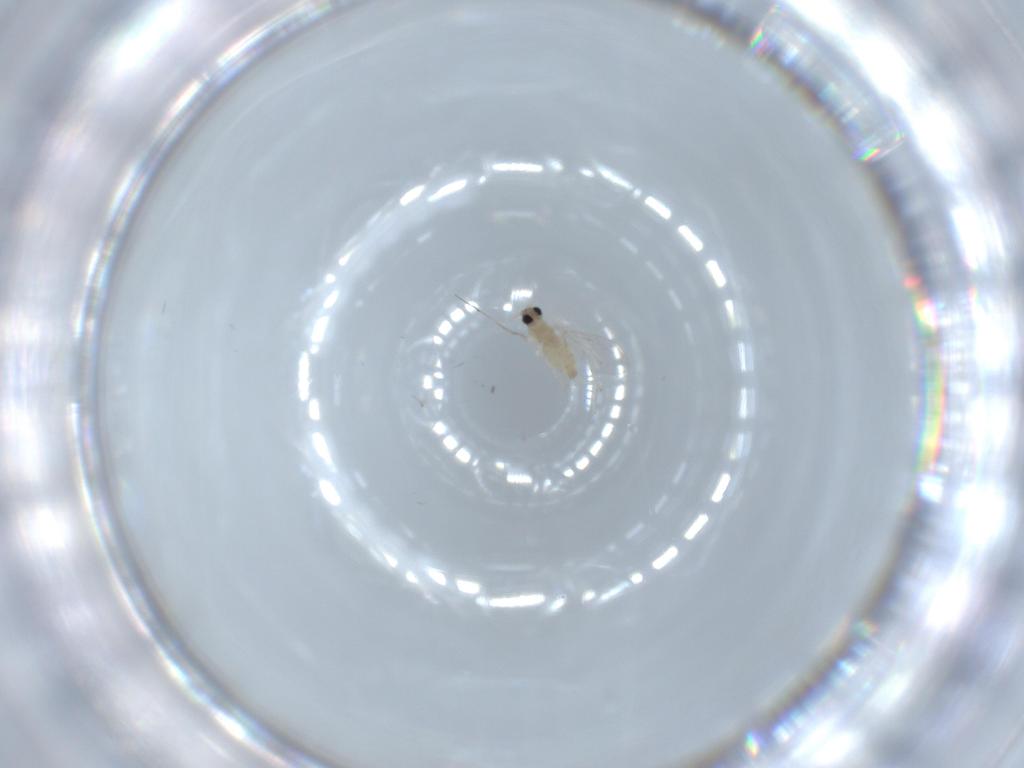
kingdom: Animalia
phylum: Arthropoda
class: Insecta
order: Diptera
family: Cecidomyiidae
